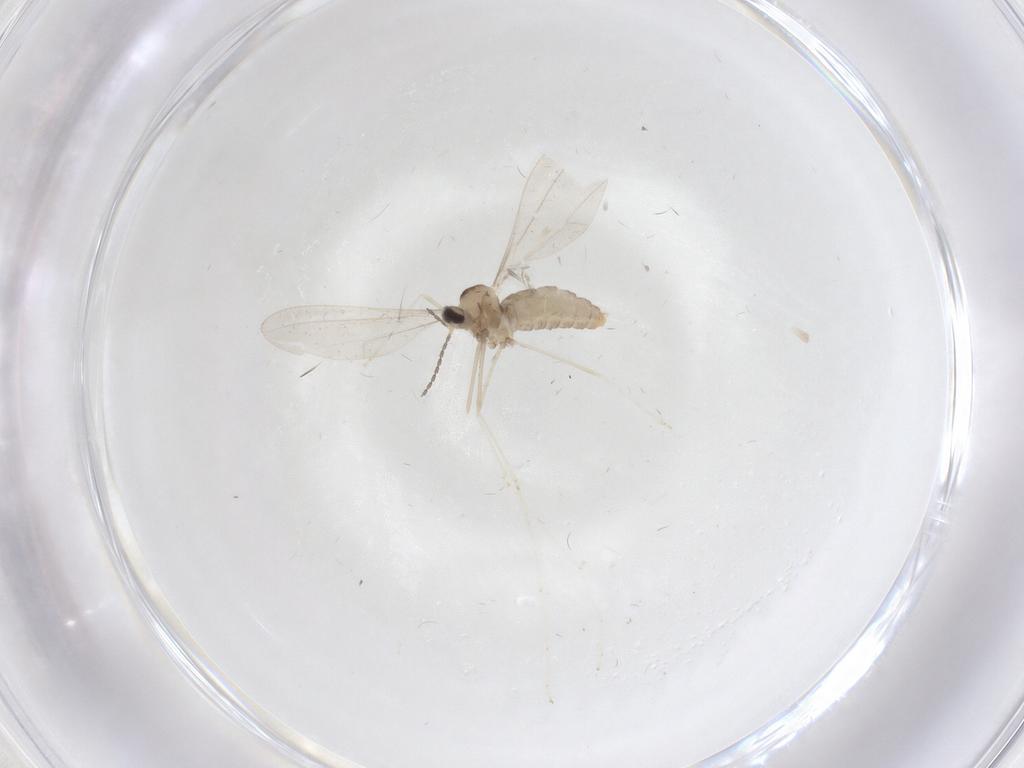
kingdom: Animalia
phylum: Arthropoda
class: Insecta
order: Diptera
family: Cecidomyiidae
